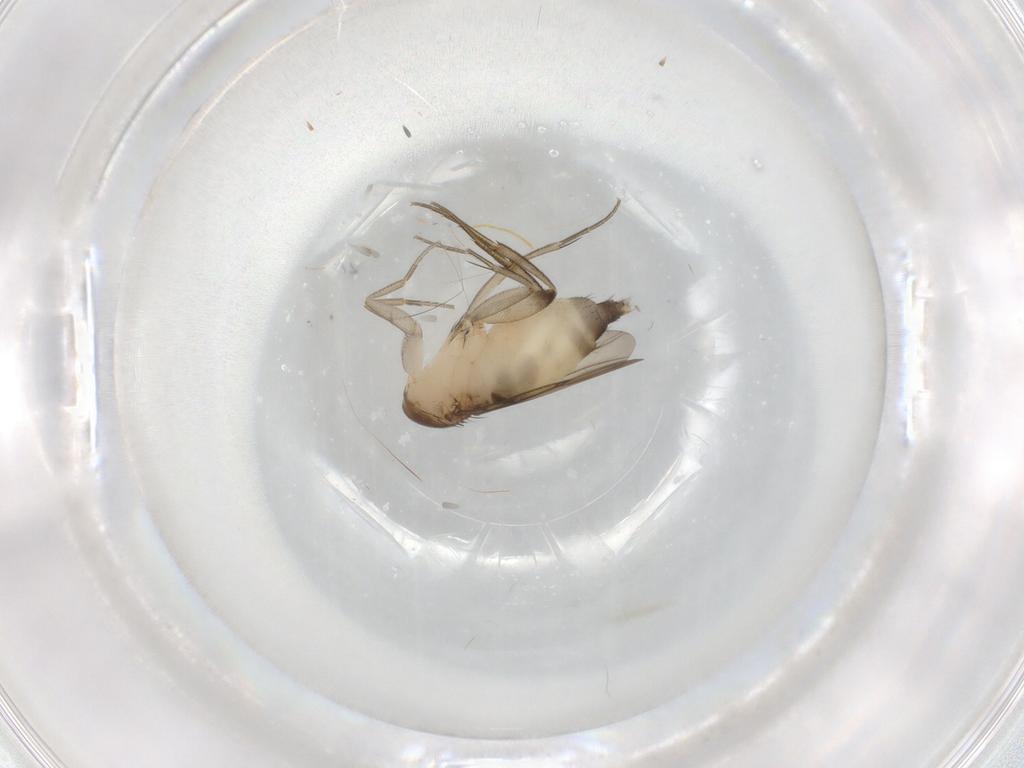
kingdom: Animalia
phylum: Arthropoda
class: Insecta
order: Diptera
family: Phoridae
